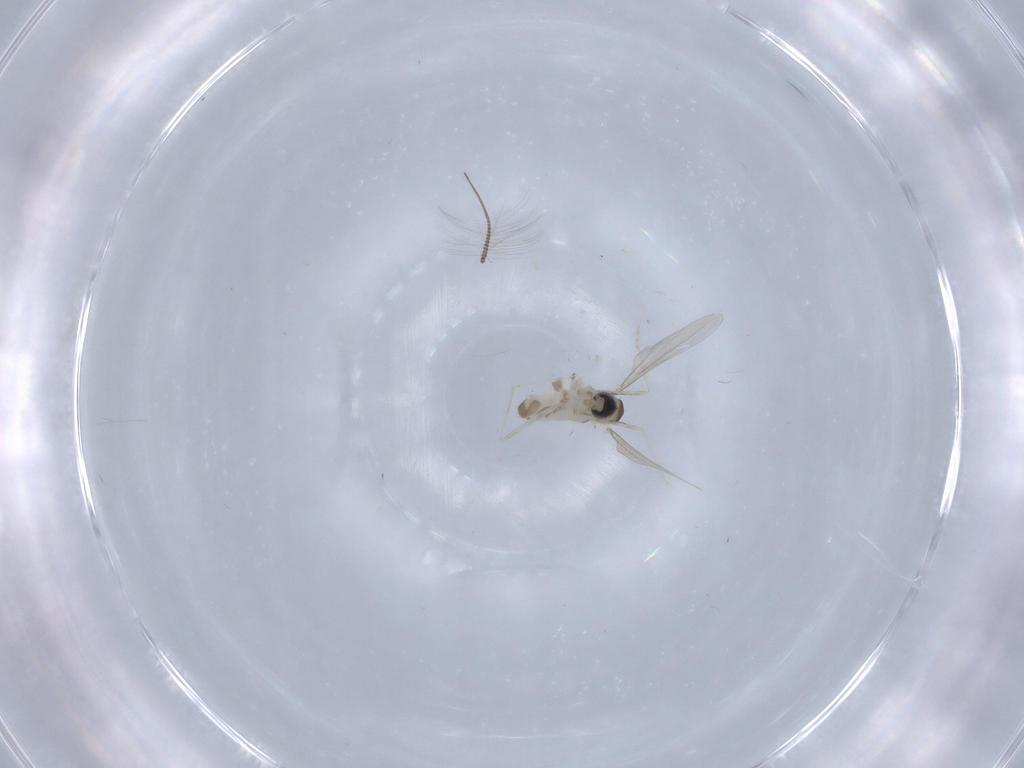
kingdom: Animalia
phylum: Arthropoda
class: Insecta
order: Diptera
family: Cecidomyiidae
